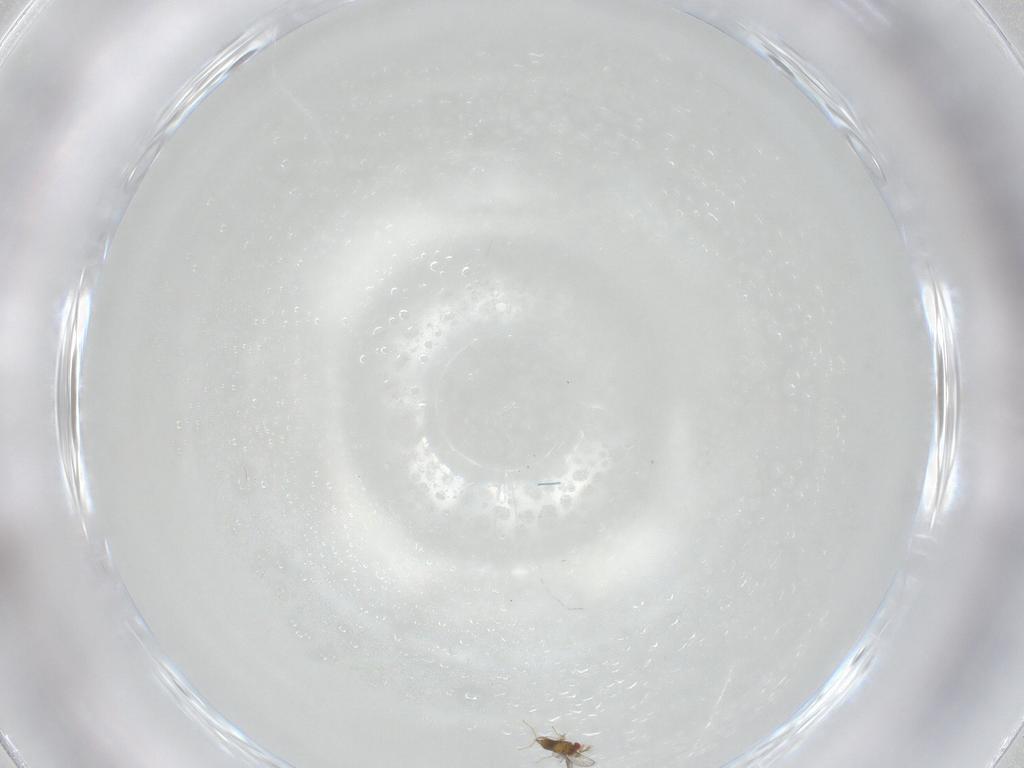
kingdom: Animalia
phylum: Arthropoda
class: Insecta
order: Hymenoptera
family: Trichogrammatidae
